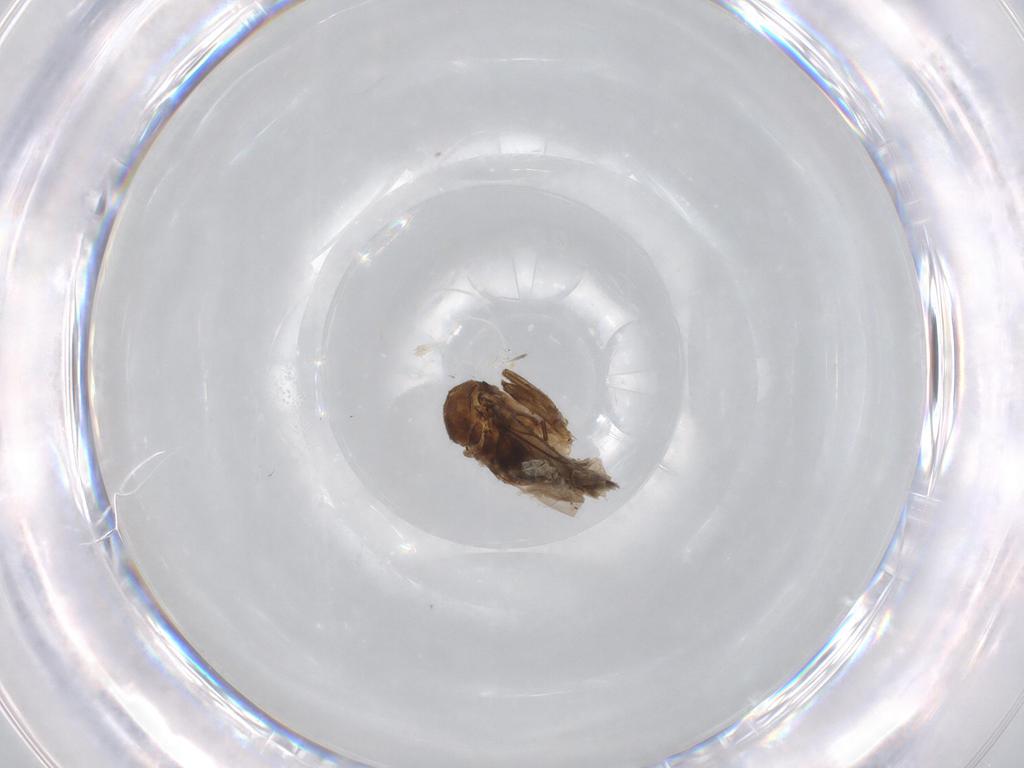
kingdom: Animalia
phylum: Arthropoda
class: Insecta
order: Diptera
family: Phoridae
